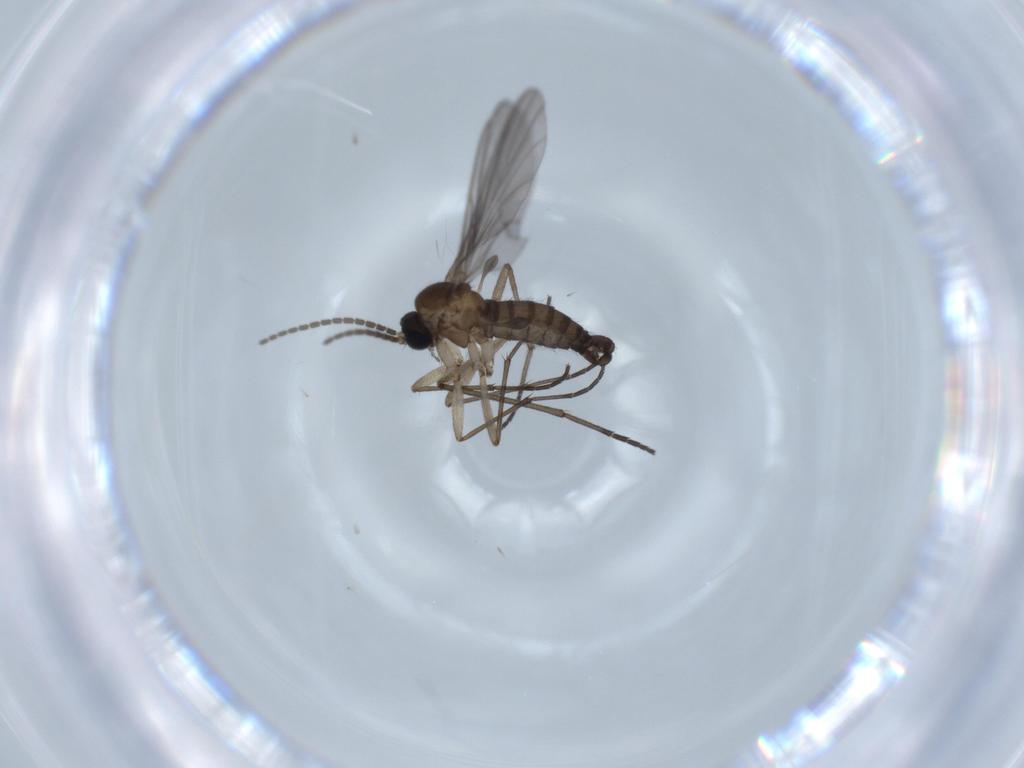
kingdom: Animalia
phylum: Arthropoda
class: Insecta
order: Diptera
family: Sciaridae
